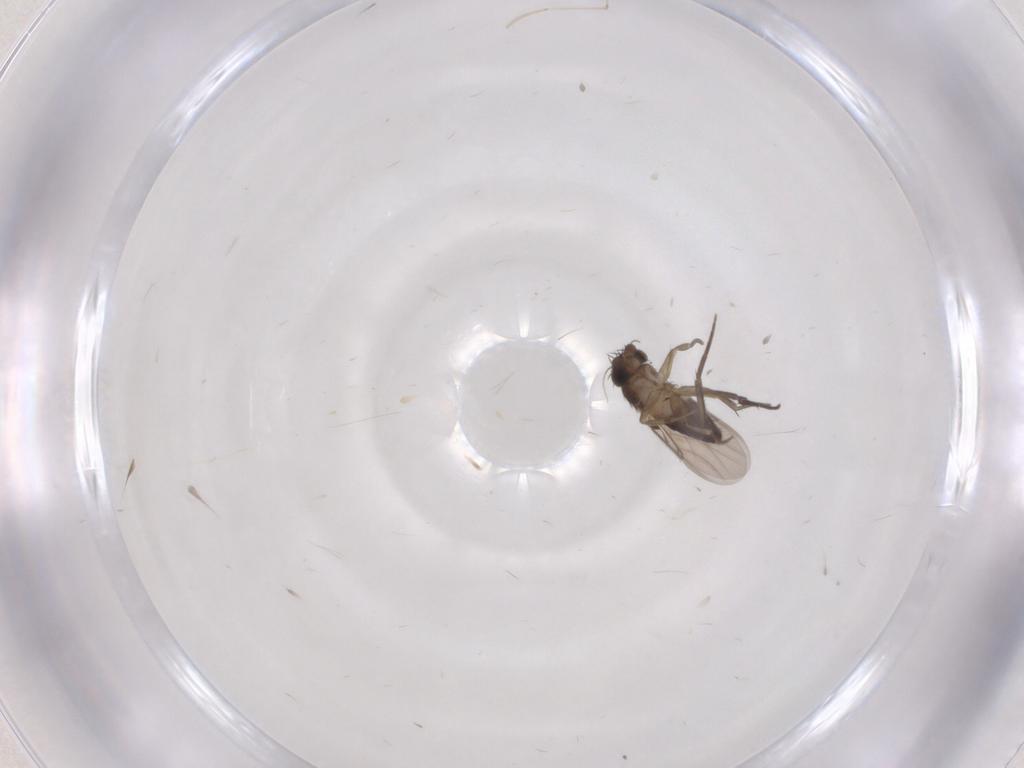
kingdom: Animalia
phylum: Arthropoda
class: Insecta
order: Diptera
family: Phoridae
